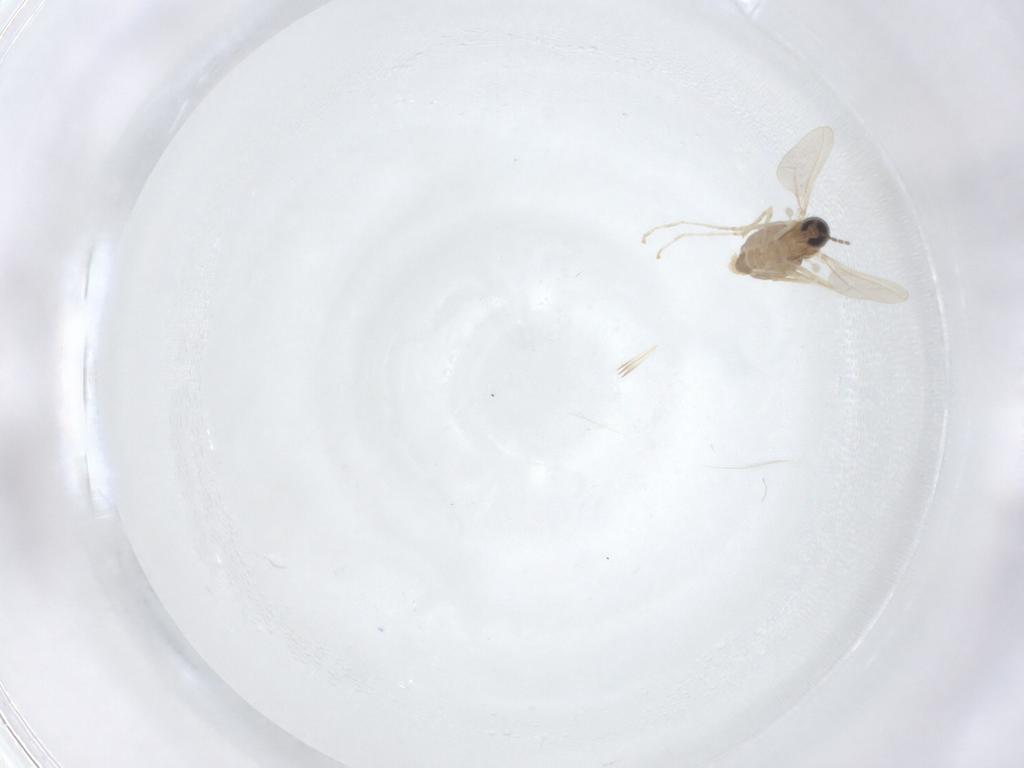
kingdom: Animalia
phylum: Arthropoda
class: Insecta
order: Diptera
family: Cecidomyiidae
